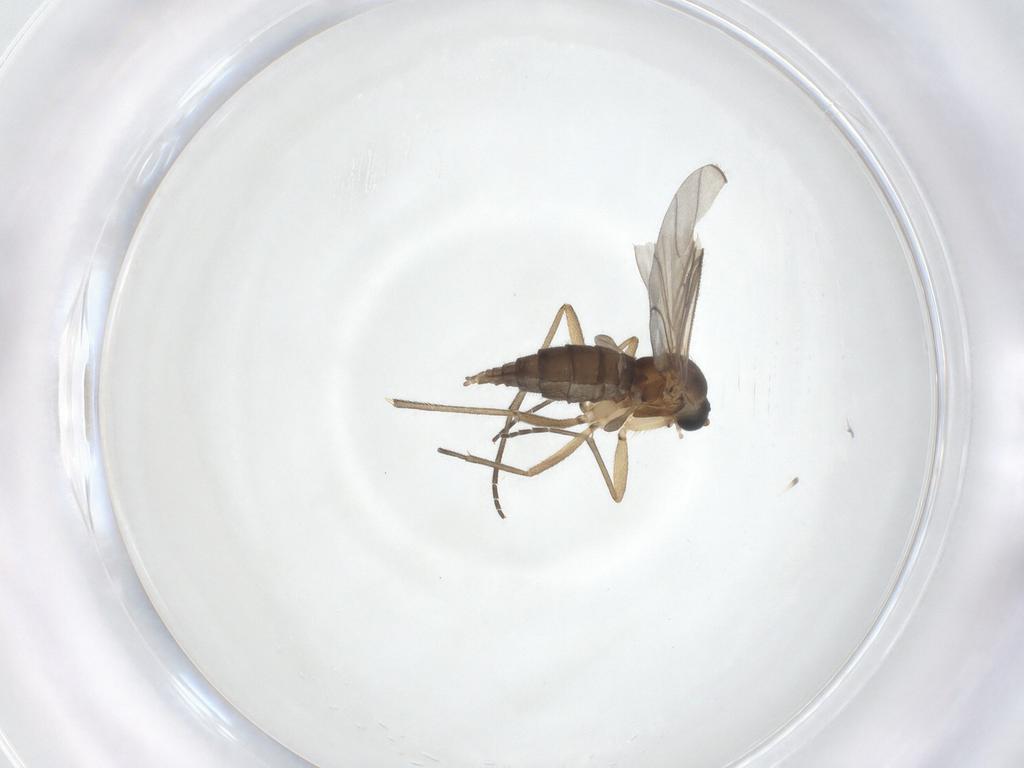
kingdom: Animalia
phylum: Arthropoda
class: Insecta
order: Diptera
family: Sciaridae
